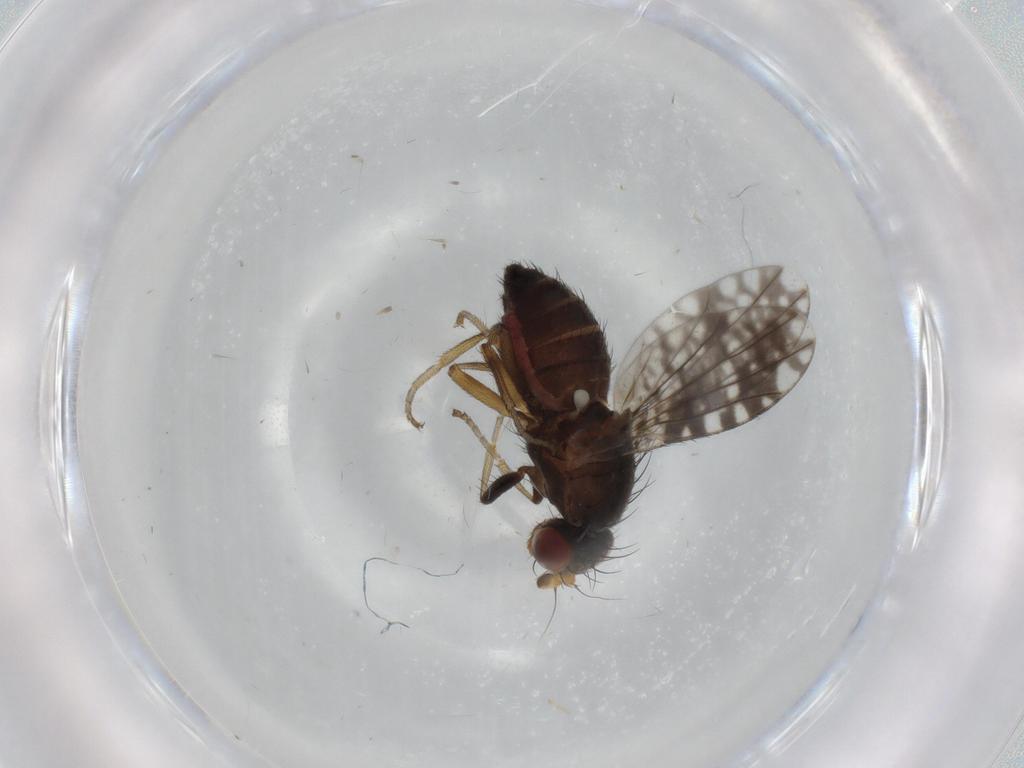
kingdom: Animalia
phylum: Arthropoda
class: Insecta
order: Diptera
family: Tephritidae
